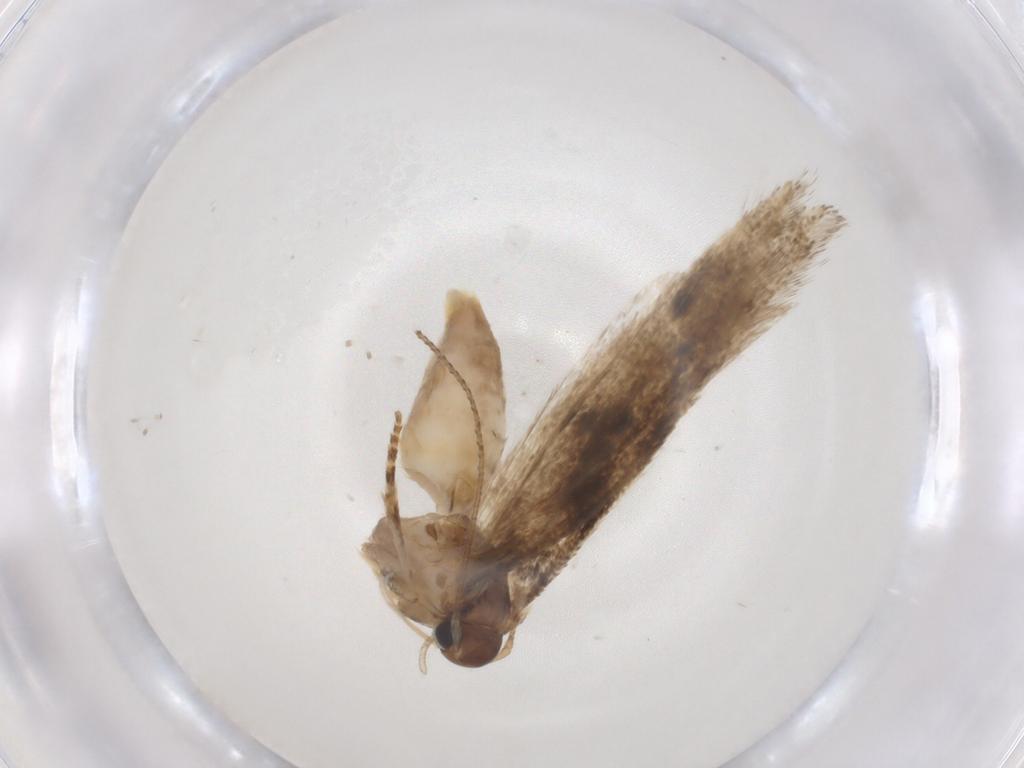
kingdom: Animalia
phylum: Arthropoda
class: Insecta
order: Lepidoptera
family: Gelechiidae
